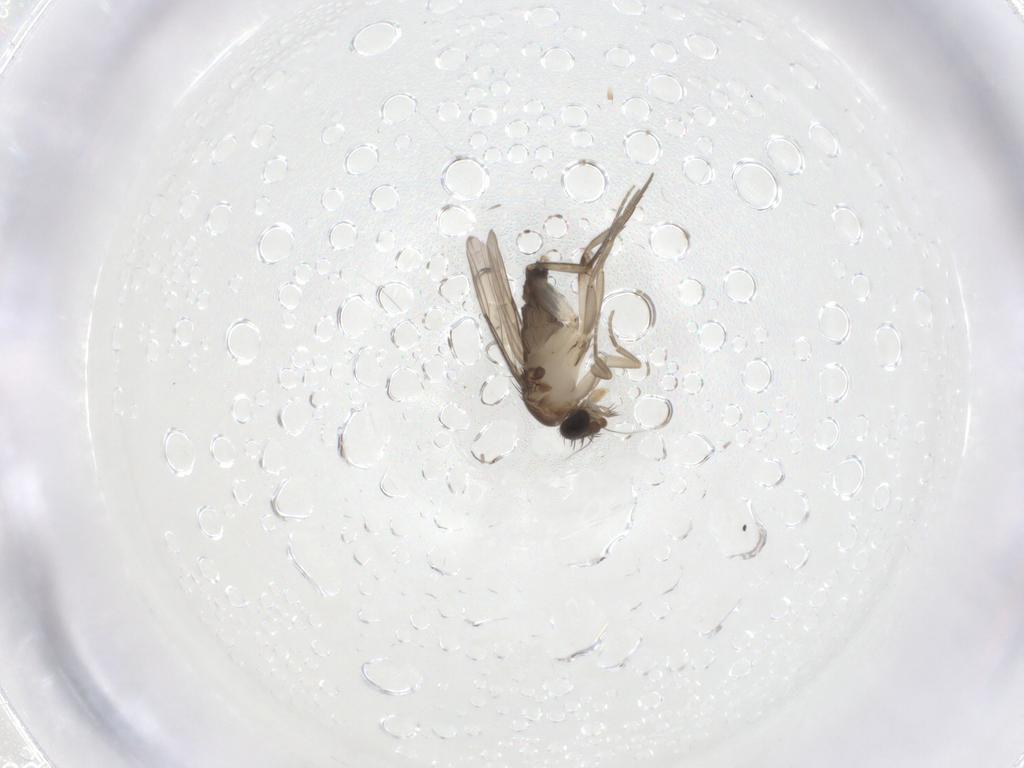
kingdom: Animalia
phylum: Arthropoda
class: Insecta
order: Diptera
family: Phoridae
